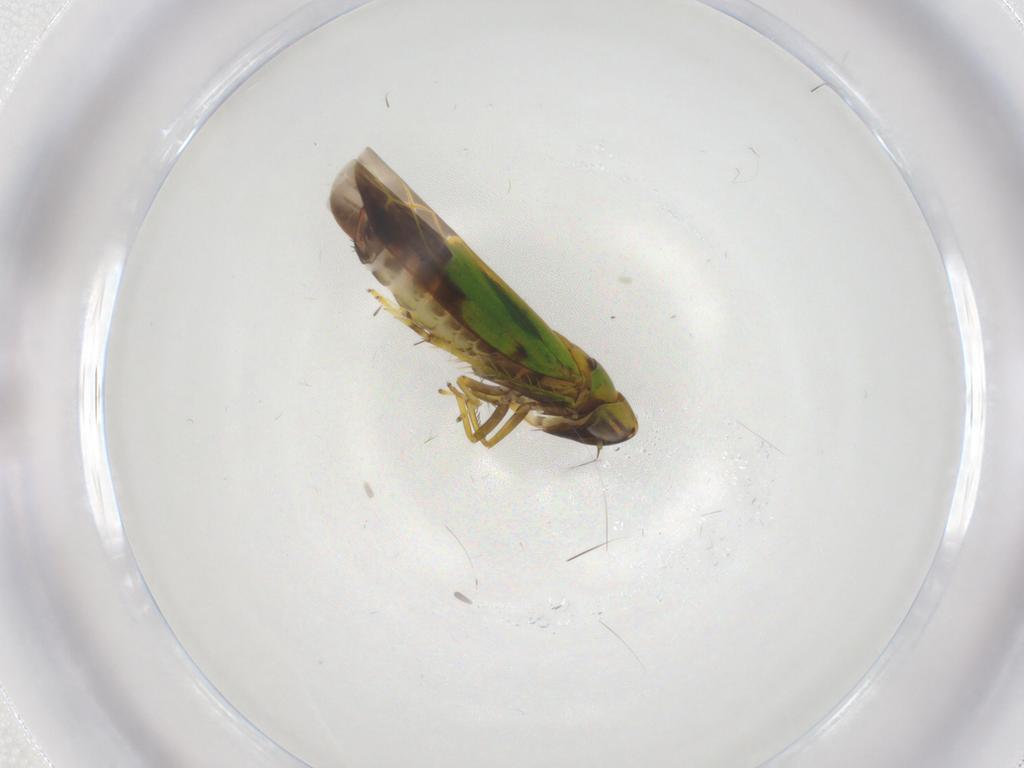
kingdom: Animalia
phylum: Arthropoda
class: Insecta
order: Hemiptera
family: Cicadellidae
